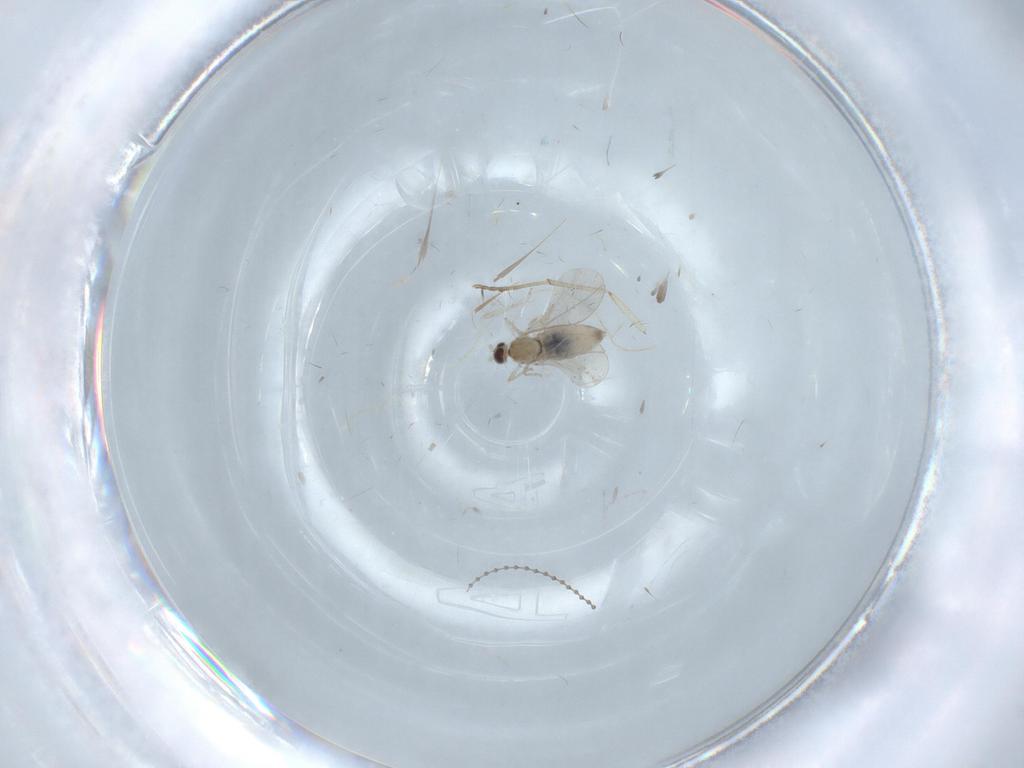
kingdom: Animalia
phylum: Arthropoda
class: Insecta
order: Diptera
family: Cecidomyiidae
